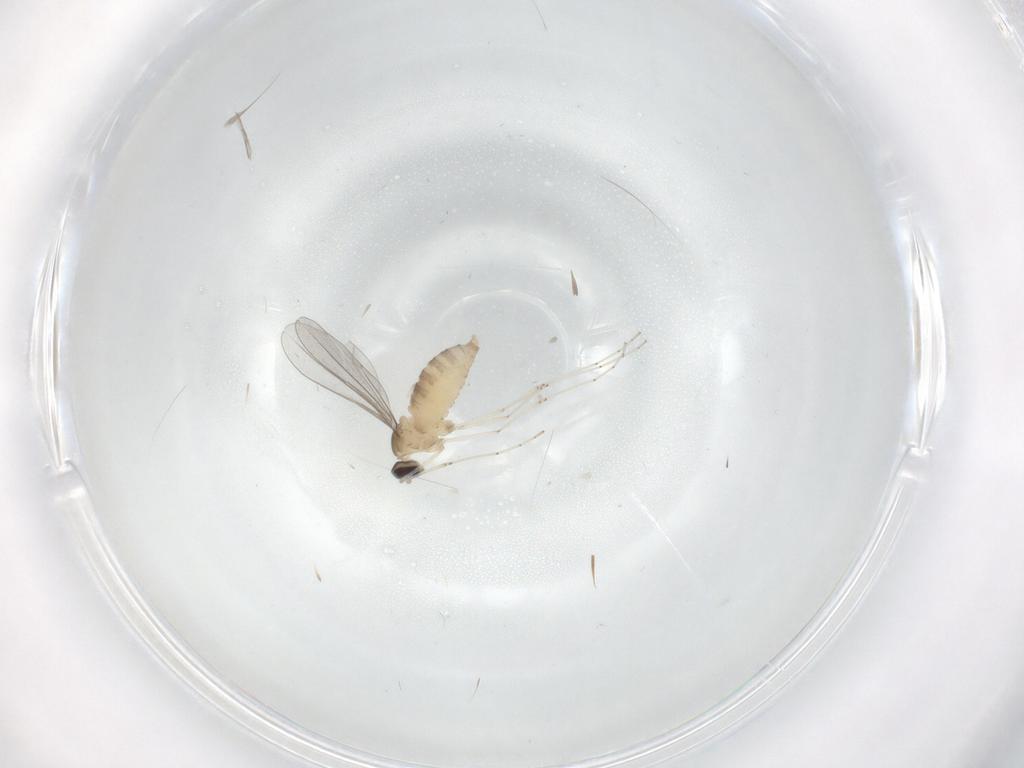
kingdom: Animalia
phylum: Arthropoda
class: Insecta
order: Diptera
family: Cecidomyiidae
